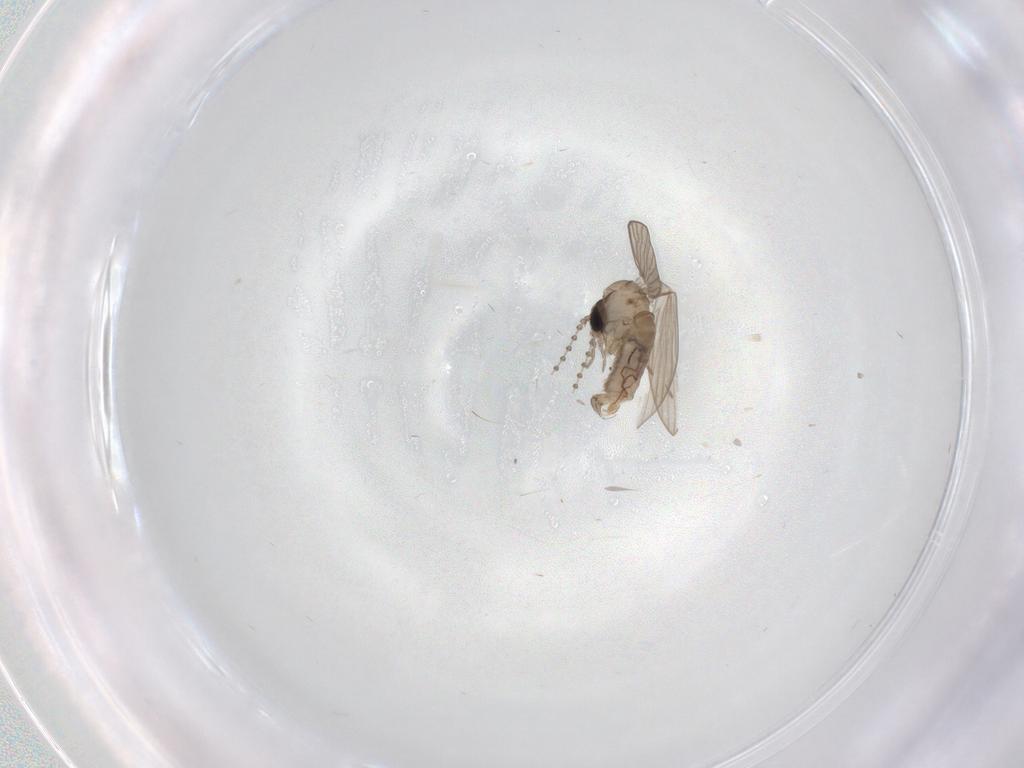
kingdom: Animalia
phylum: Arthropoda
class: Insecta
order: Diptera
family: Psychodidae
